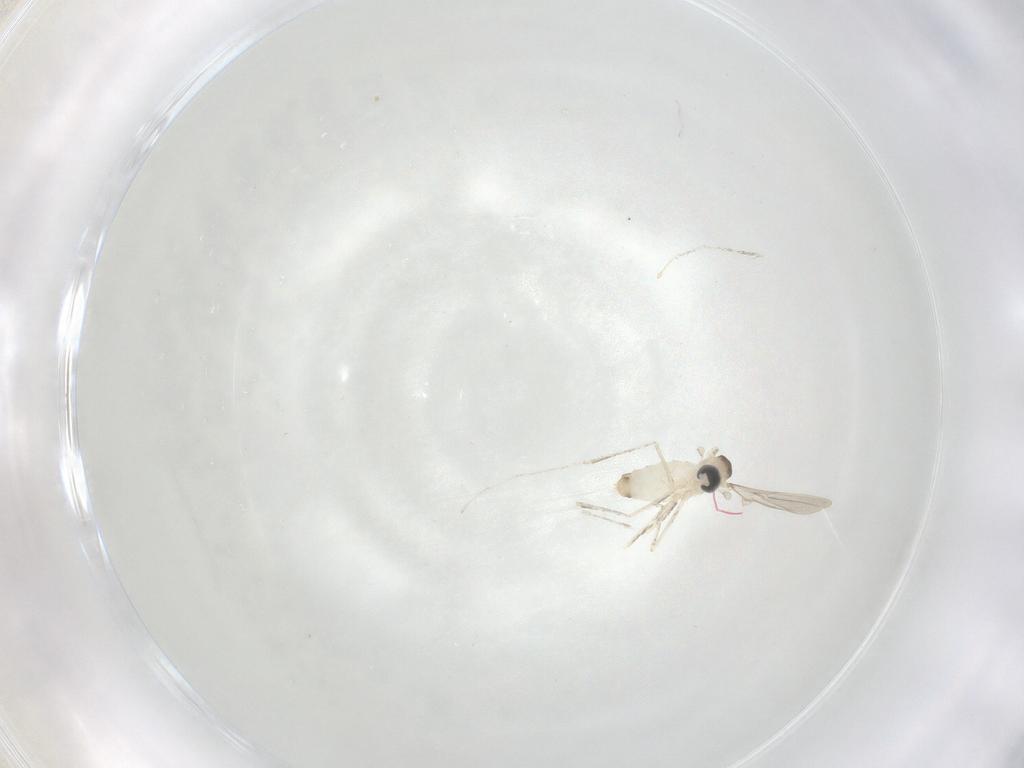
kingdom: Animalia
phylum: Arthropoda
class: Insecta
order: Diptera
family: Cecidomyiidae
